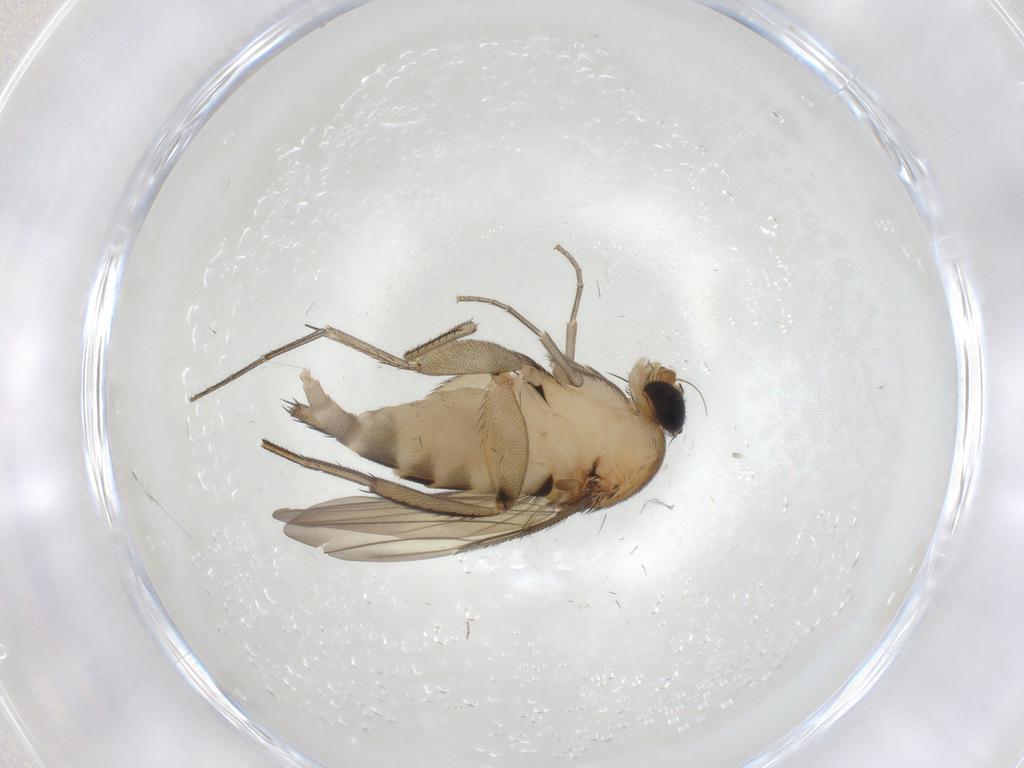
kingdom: Animalia
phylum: Arthropoda
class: Insecta
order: Diptera
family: Phoridae
